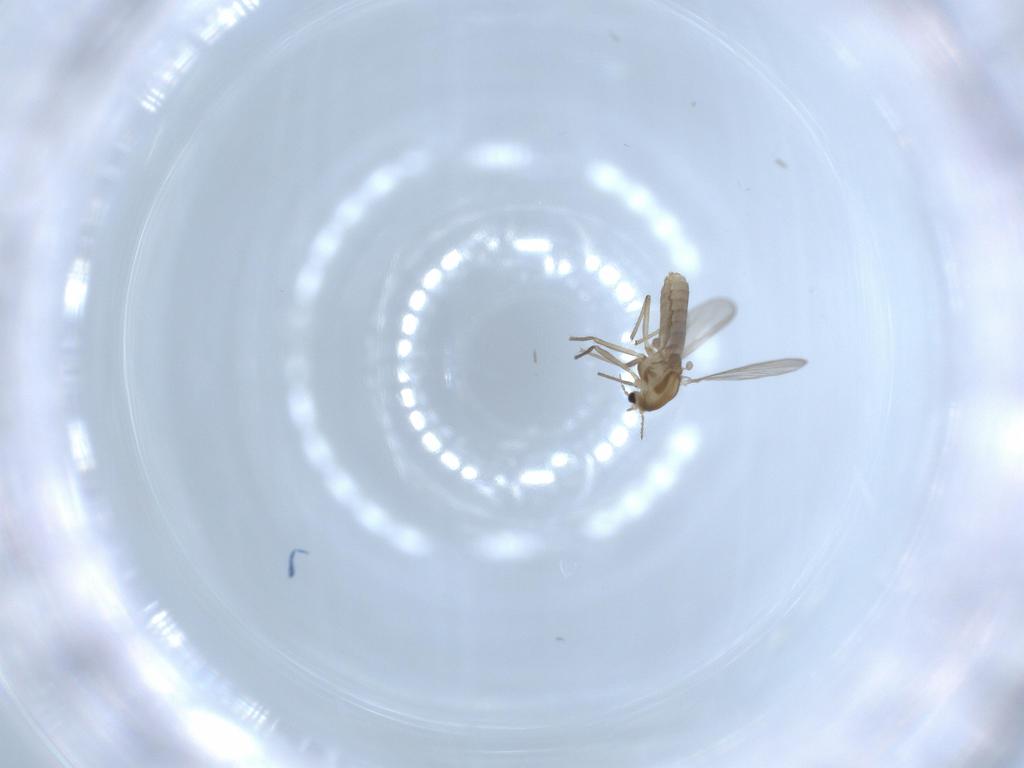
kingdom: Animalia
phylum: Arthropoda
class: Insecta
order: Diptera
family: Chironomidae
